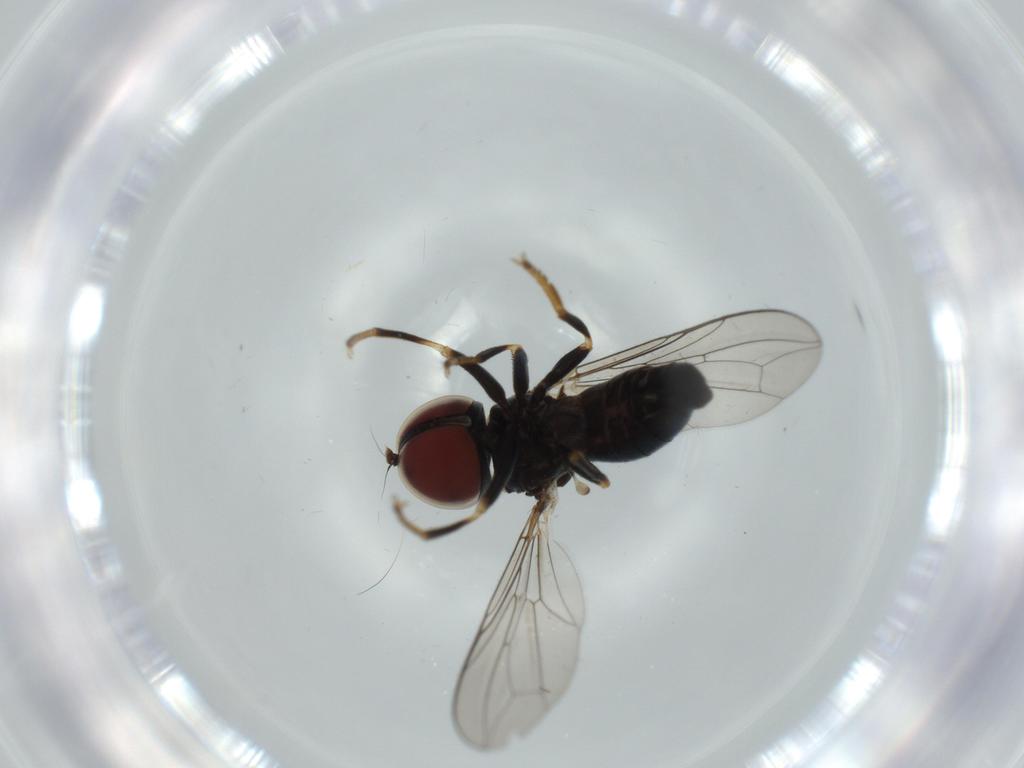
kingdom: Animalia
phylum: Arthropoda
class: Insecta
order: Diptera
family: Pipunculidae
